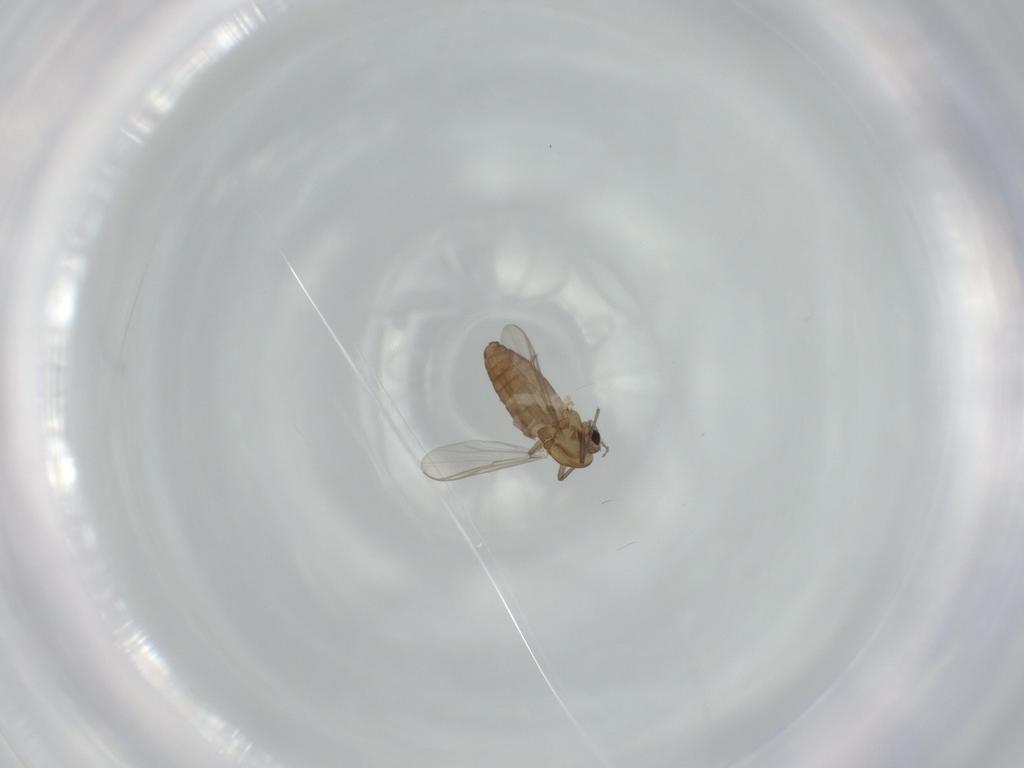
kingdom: Animalia
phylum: Arthropoda
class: Insecta
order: Diptera
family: Chironomidae
